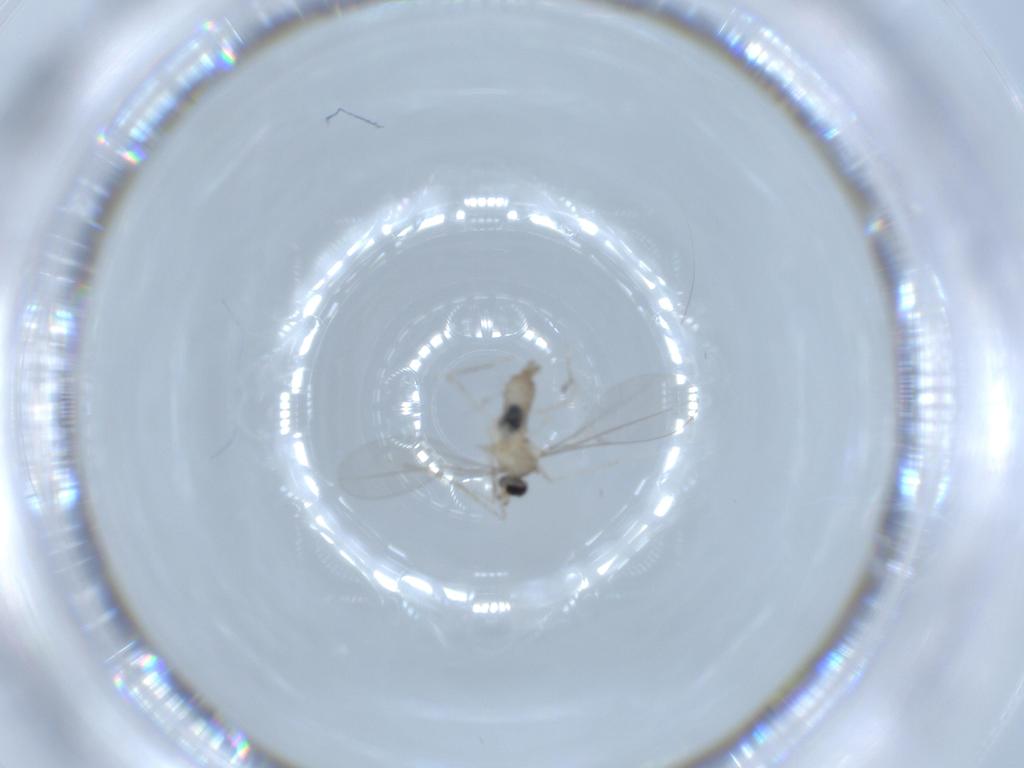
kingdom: Animalia
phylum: Arthropoda
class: Insecta
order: Diptera
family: Cecidomyiidae
